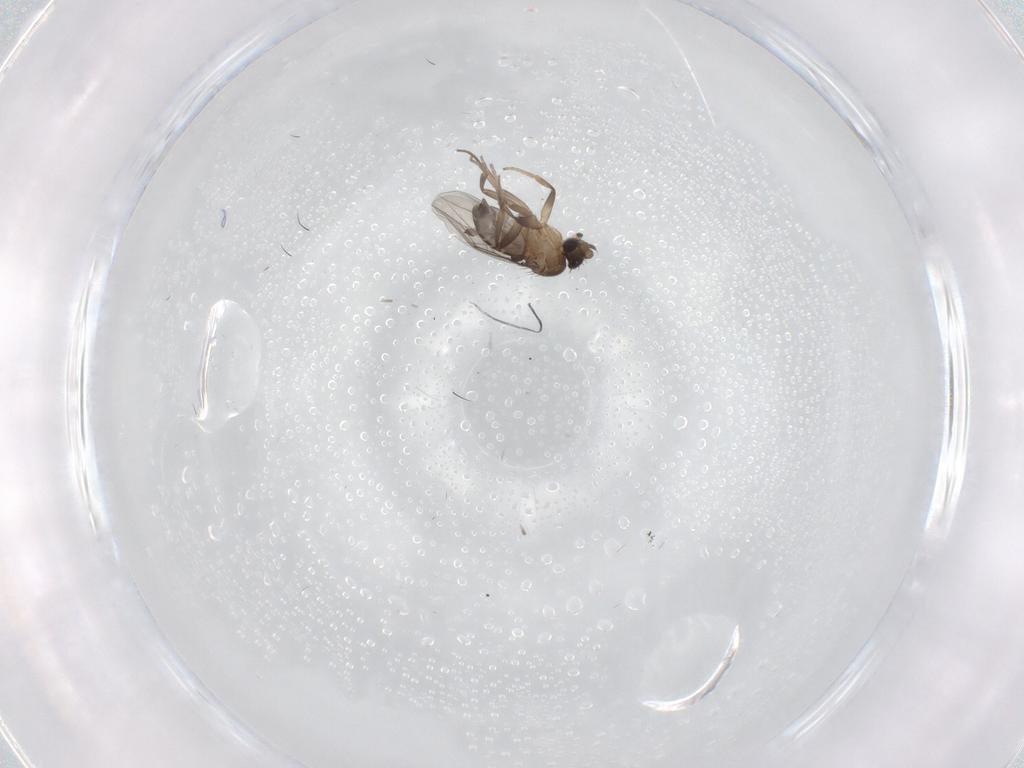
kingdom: Animalia
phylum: Arthropoda
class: Insecta
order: Diptera
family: Phoridae
